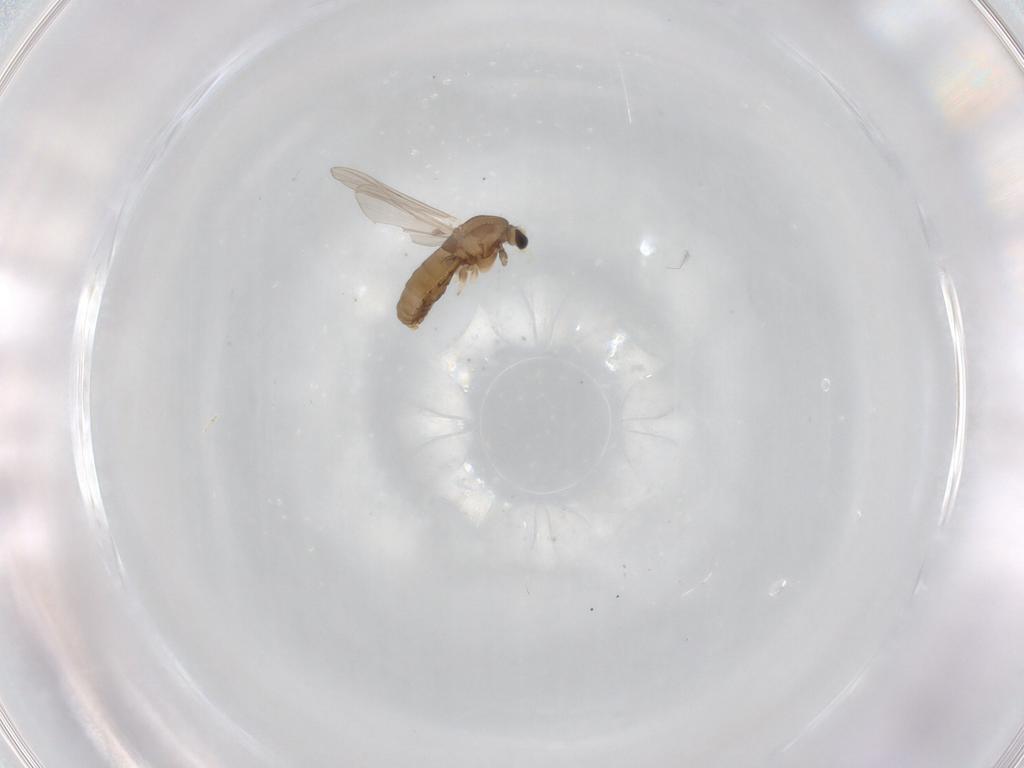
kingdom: Animalia
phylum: Arthropoda
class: Insecta
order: Diptera
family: Chironomidae
